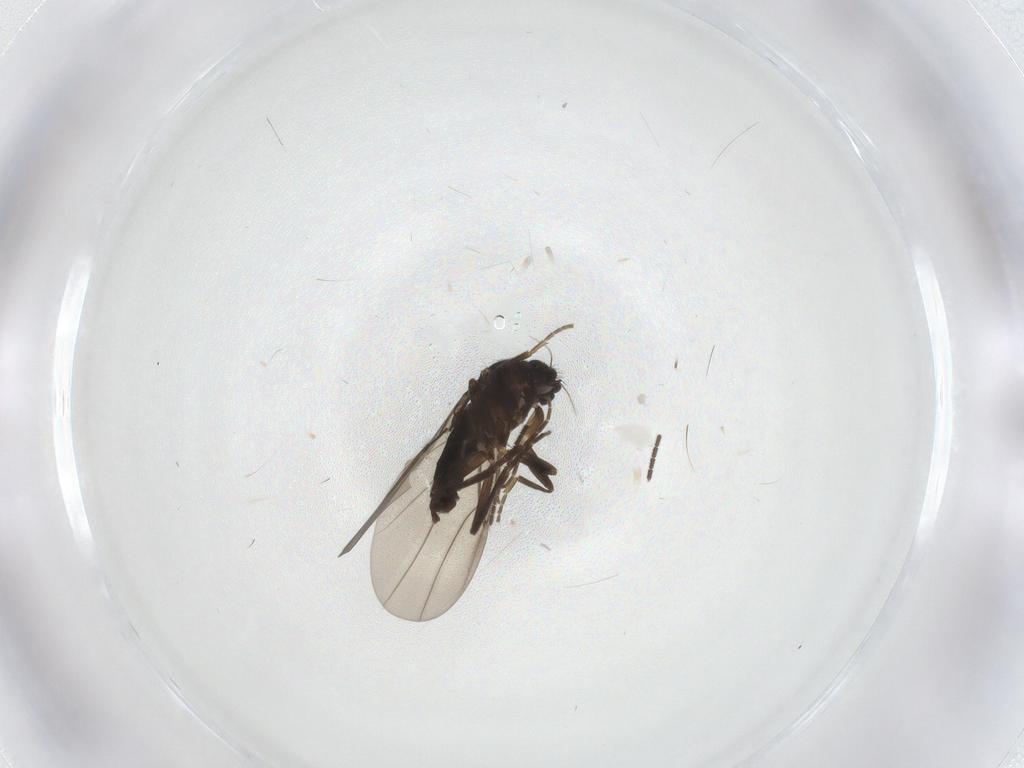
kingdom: Animalia
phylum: Arthropoda
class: Insecta
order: Diptera
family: Sciaridae
